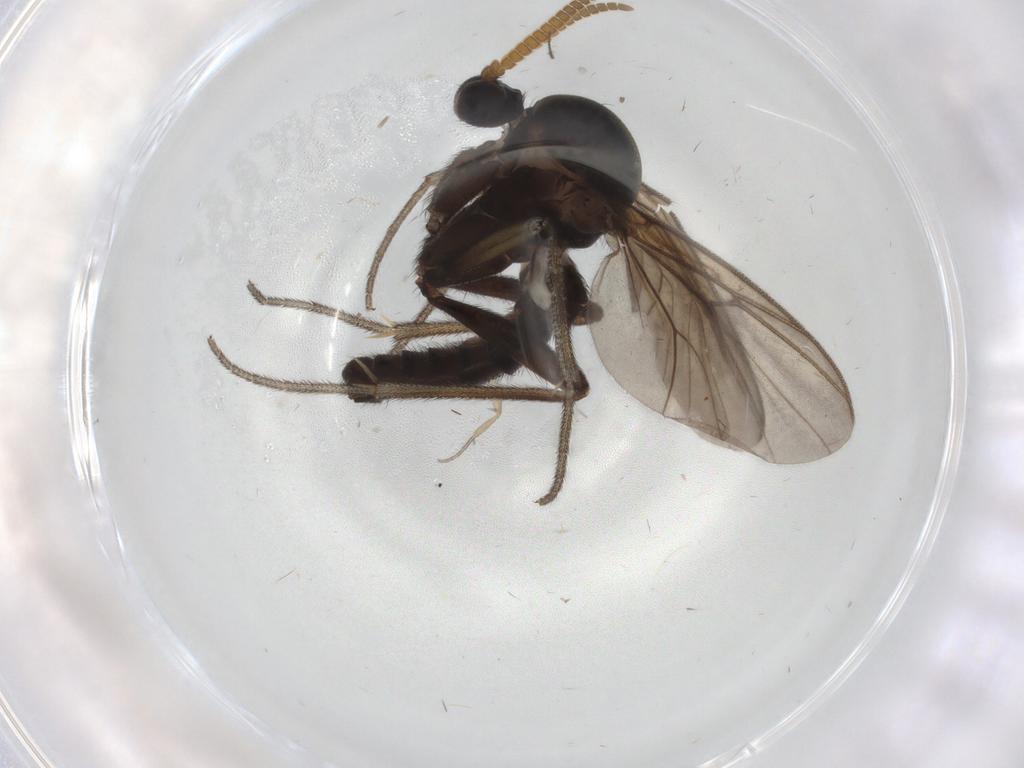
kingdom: Animalia
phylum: Arthropoda
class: Insecta
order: Diptera
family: Mycetophilidae
